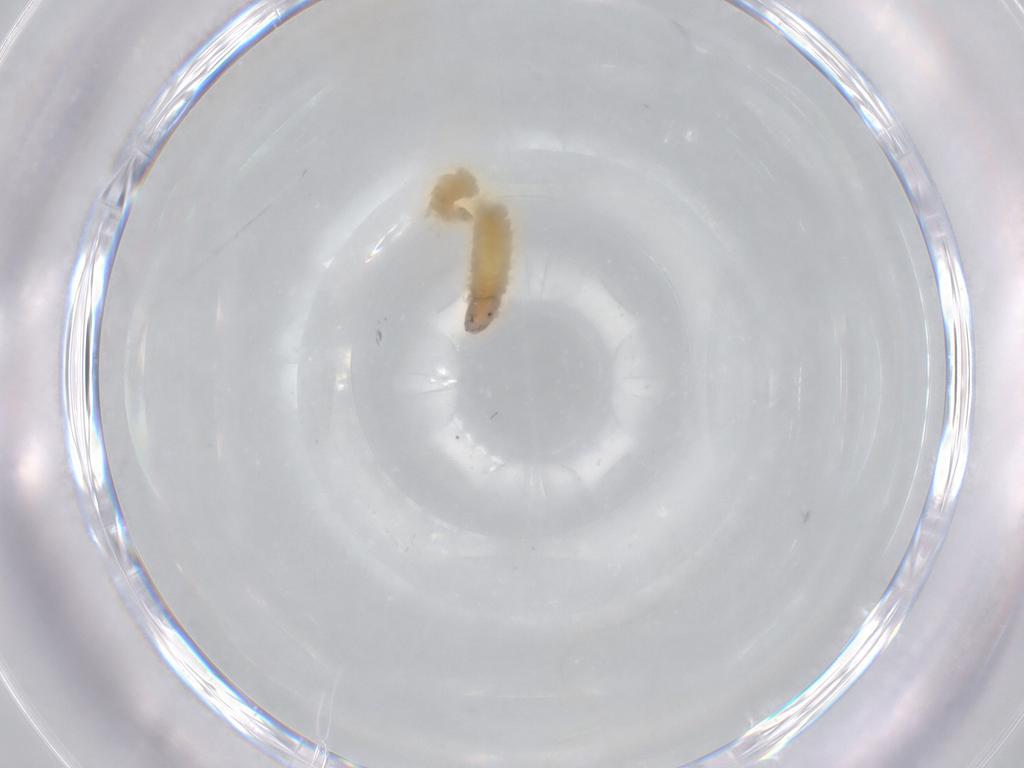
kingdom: Animalia
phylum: Arthropoda
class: Insecta
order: Diptera
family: Chironomidae
